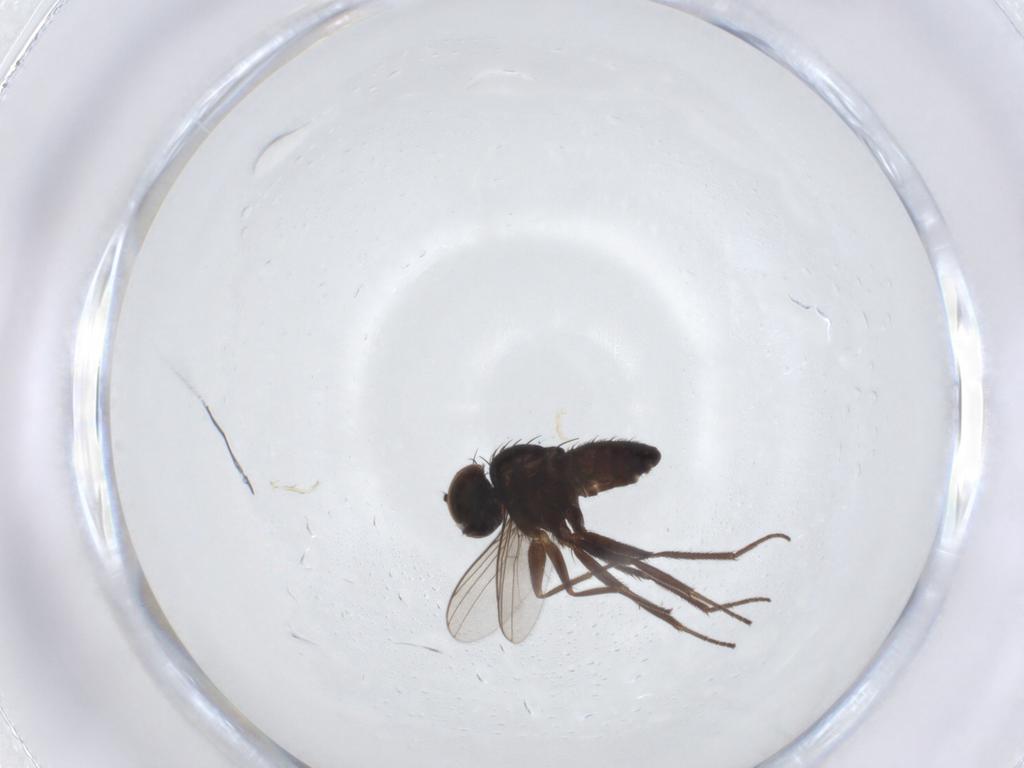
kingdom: Animalia
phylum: Arthropoda
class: Insecta
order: Diptera
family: Dolichopodidae
